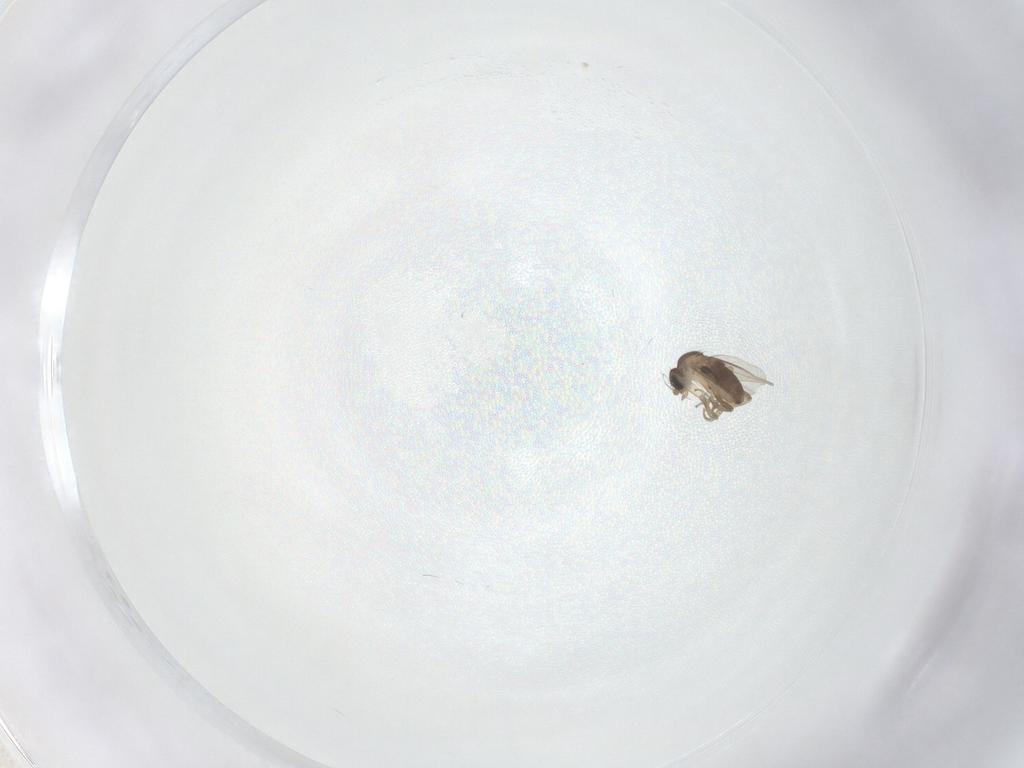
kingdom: Animalia
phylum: Arthropoda
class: Insecta
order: Diptera
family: Phoridae
